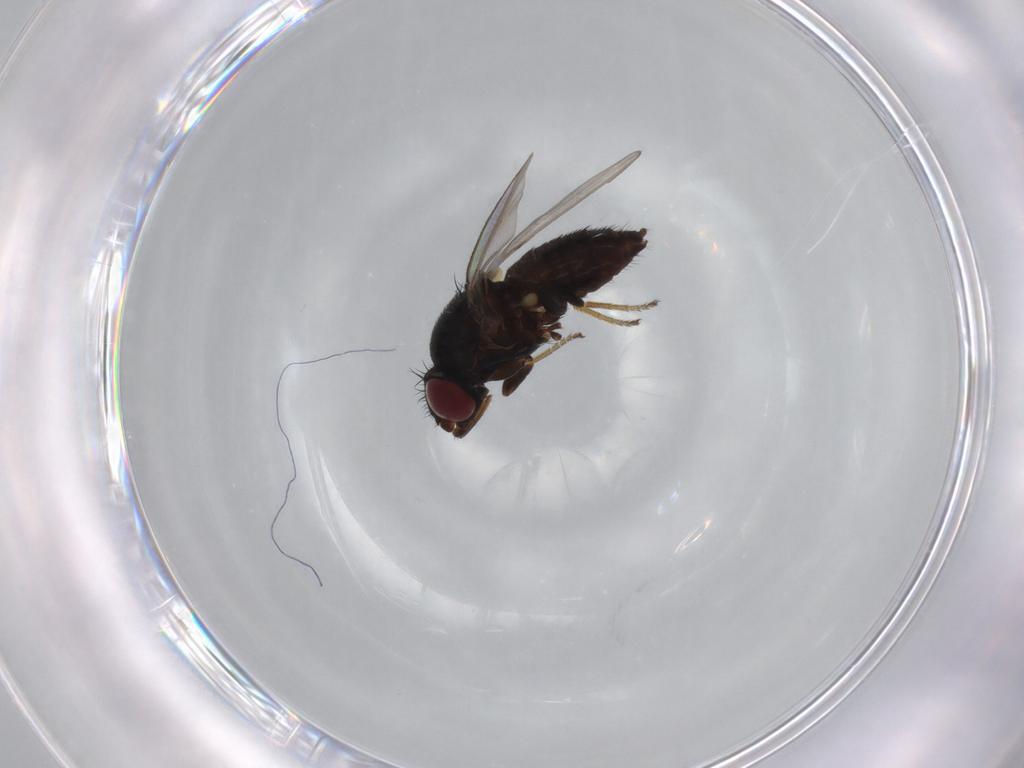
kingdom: Animalia
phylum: Arthropoda
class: Insecta
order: Diptera
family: Milichiidae
